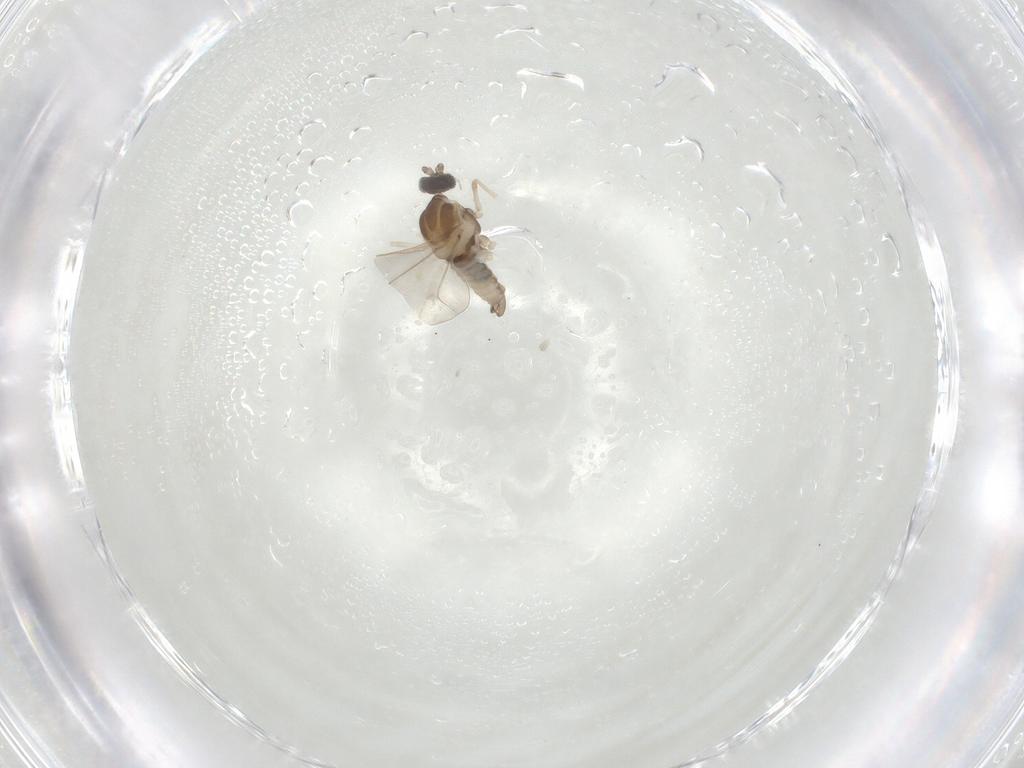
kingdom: Animalia
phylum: Arthropoda
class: Insecta
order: Diptera
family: Cecidomyiidae
